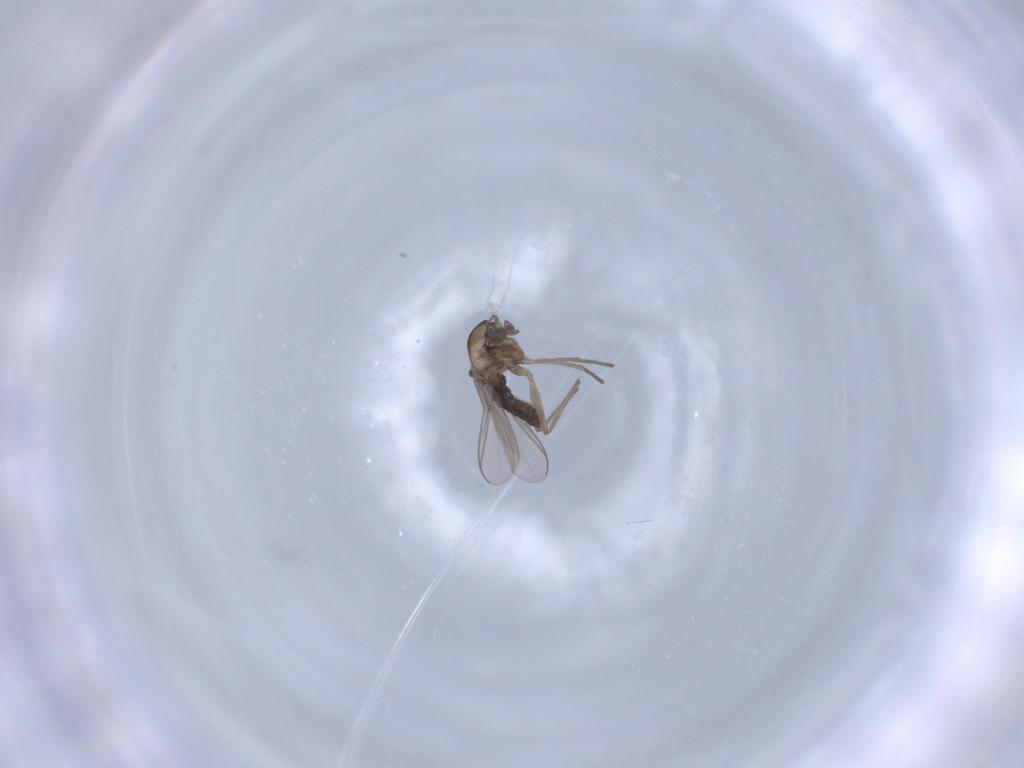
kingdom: Animalia
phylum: Arthropoda
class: Insecta
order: Diptera
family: Chironomidae
